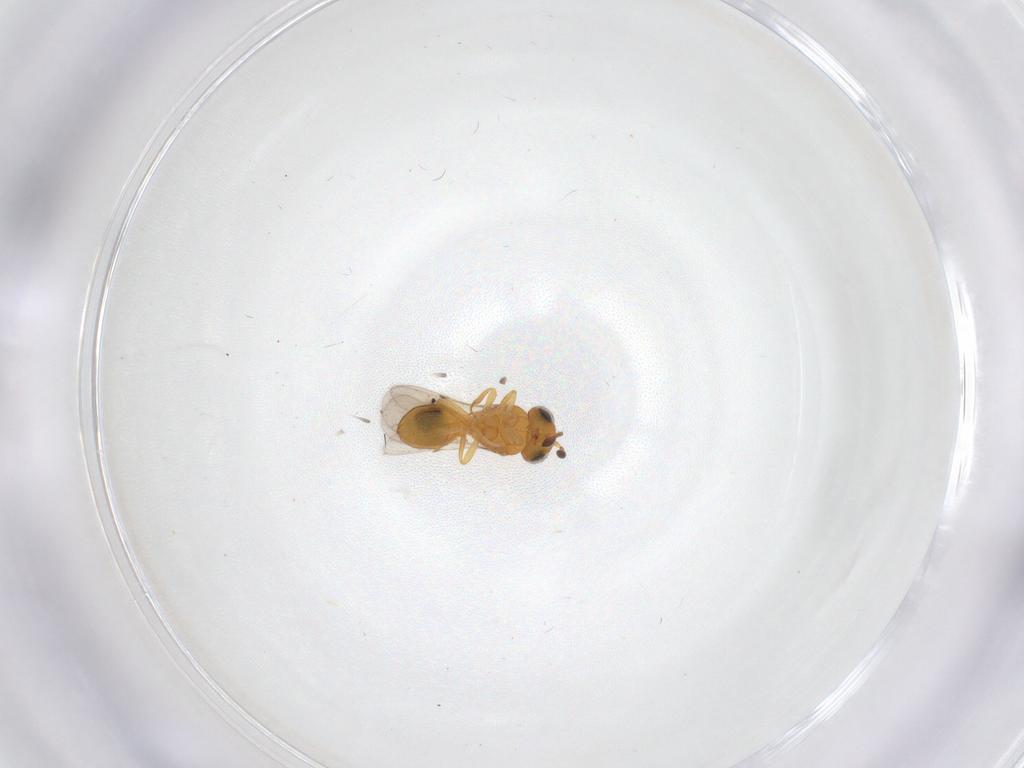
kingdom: Animalia
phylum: Arthropoda
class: Insecta
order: Hymenoptera
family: Scelionidae
